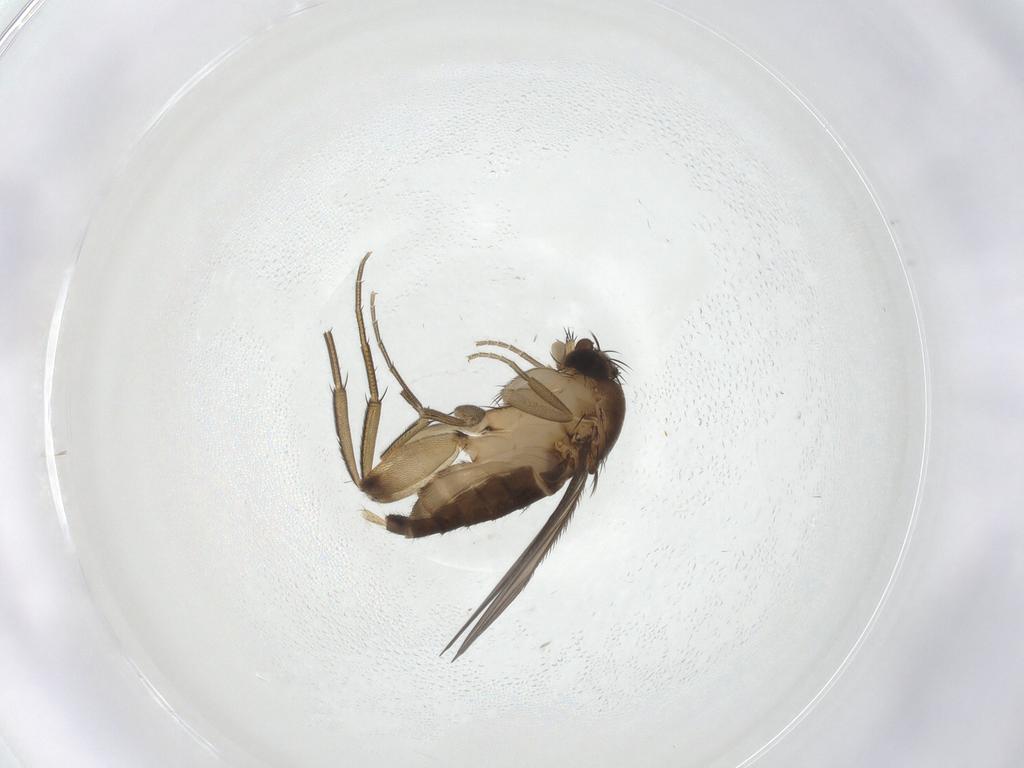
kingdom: Animalia
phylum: Arthropoda
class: Insecta
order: Diptera
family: Phoridae
